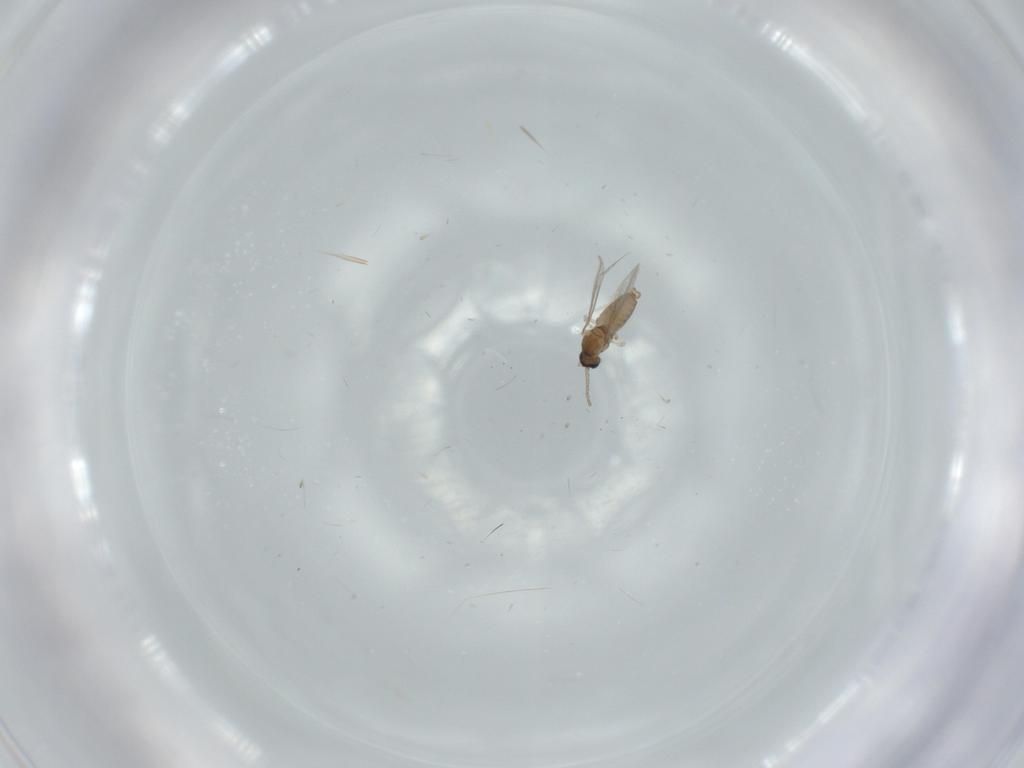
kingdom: Animalia
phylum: Arthropoda
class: Insecta
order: Diptera
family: Cecidomyiidae
